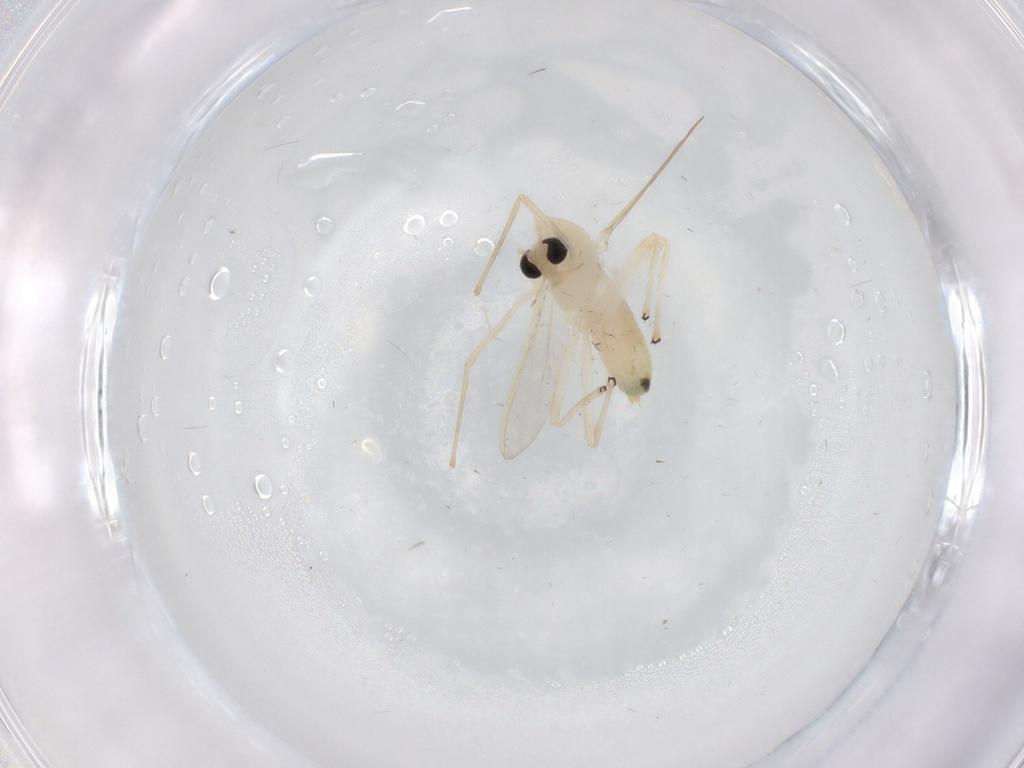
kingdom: Animalia
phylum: Arthropoda
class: Insecta
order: Diptera
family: Chironomidae
